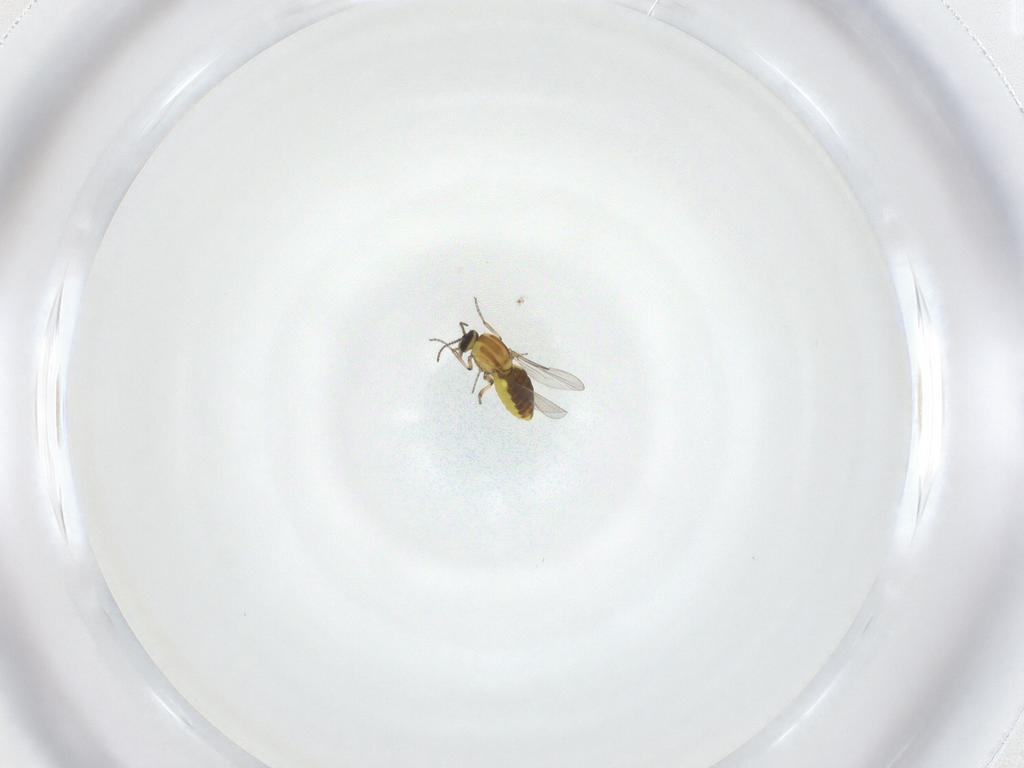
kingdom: Animalia
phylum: Arthropoda
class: Insecta
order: Diptera
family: Ceratopogonidae
